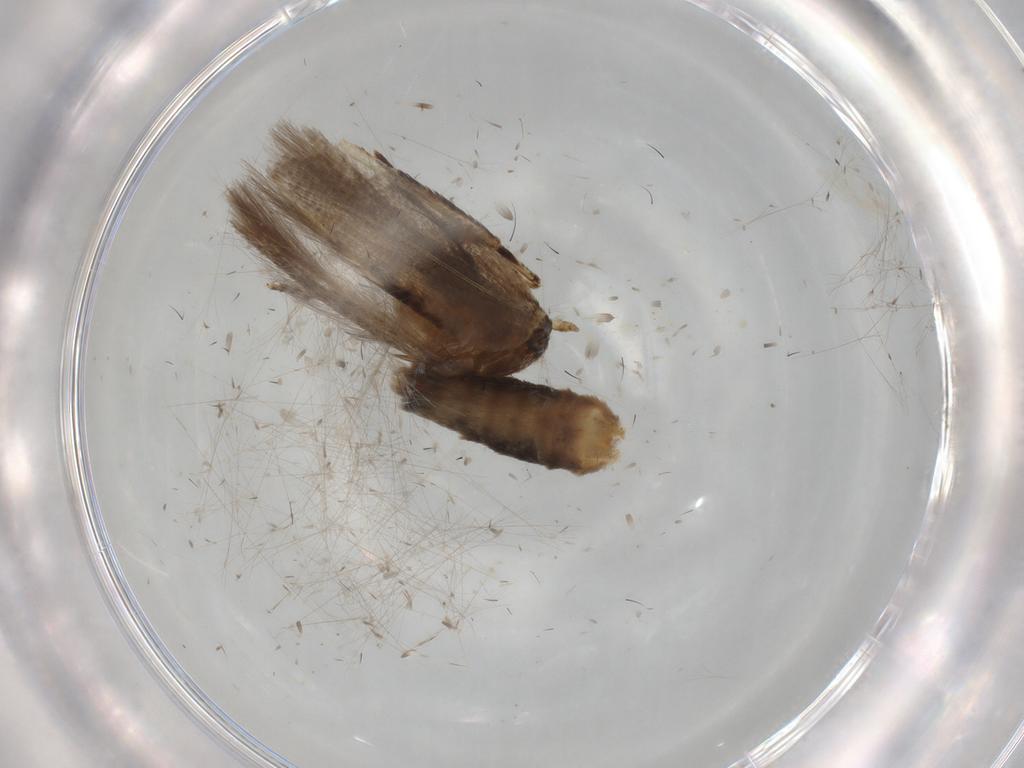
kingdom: Animalia
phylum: Arthropoda
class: Insecta
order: Lepidoptera
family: Cosmopterigidae
